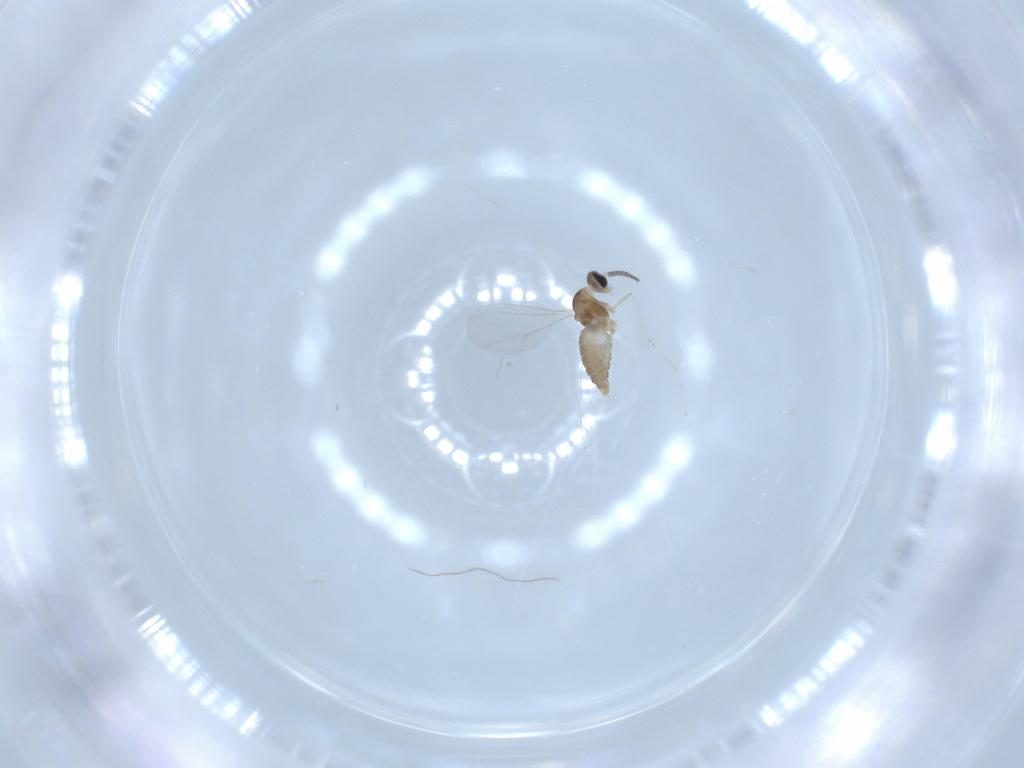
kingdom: Animalia
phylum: Arthropoda
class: Insecta
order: Diptera
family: Cecidomyiidae
